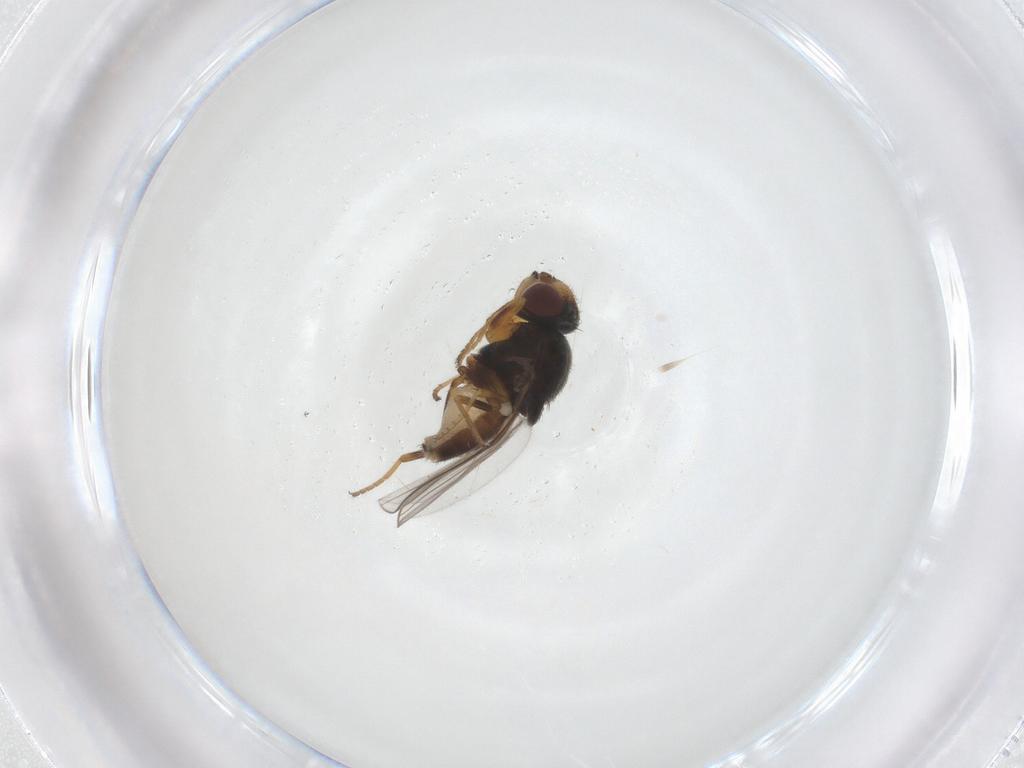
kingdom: Animalia
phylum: Arthropoda
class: Insecta
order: Diptera
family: Chloropidae
